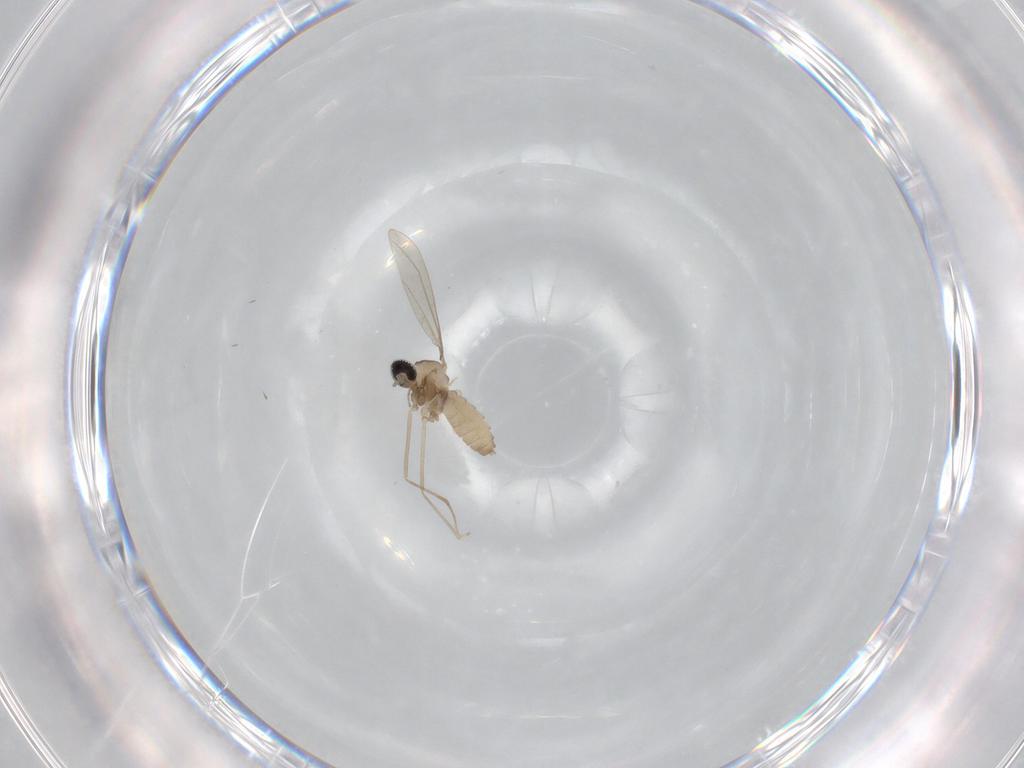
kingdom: Animalia
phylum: Arthropoda
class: Insecta
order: Diptera
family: Cecidomyiidae
